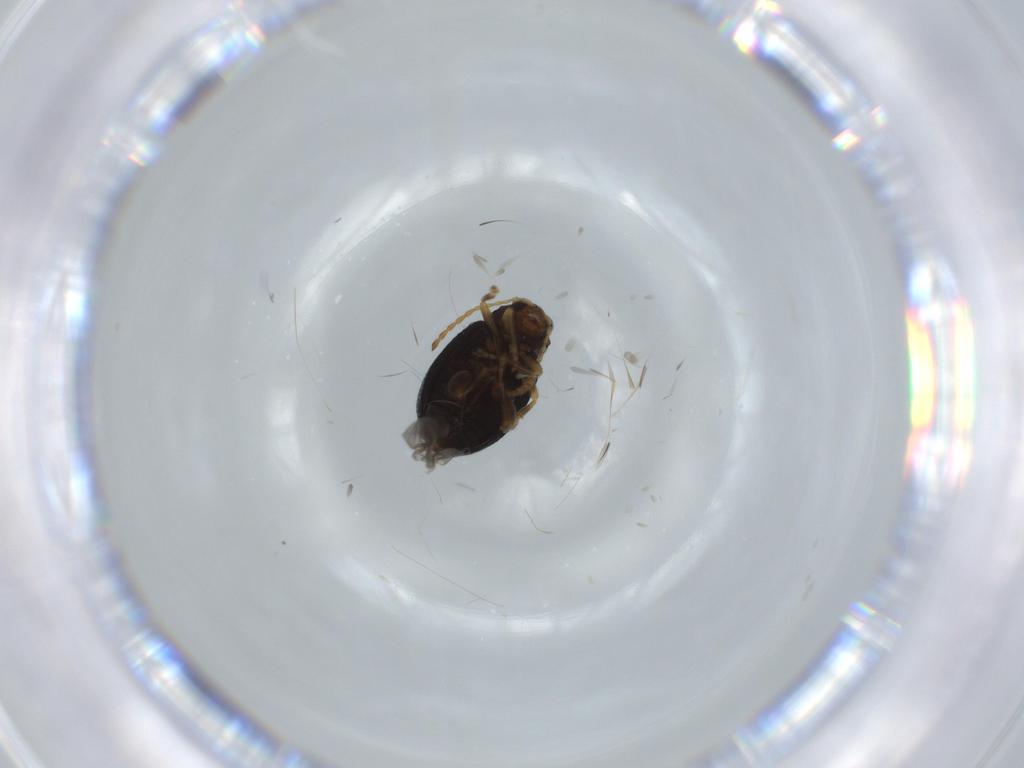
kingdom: Animalia
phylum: Arthropoda
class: Insecta
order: Coleoptera
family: Chrysomelidae
